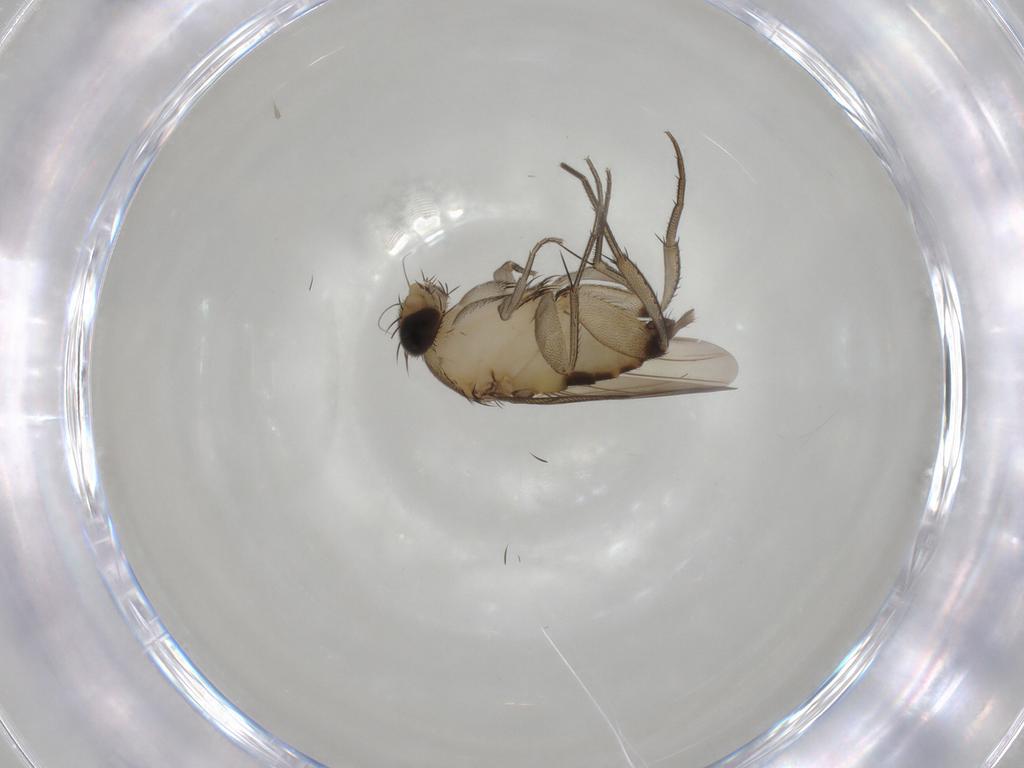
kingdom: Animalia
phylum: Arthropoda
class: Insecta
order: Diptera
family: Phoridae
